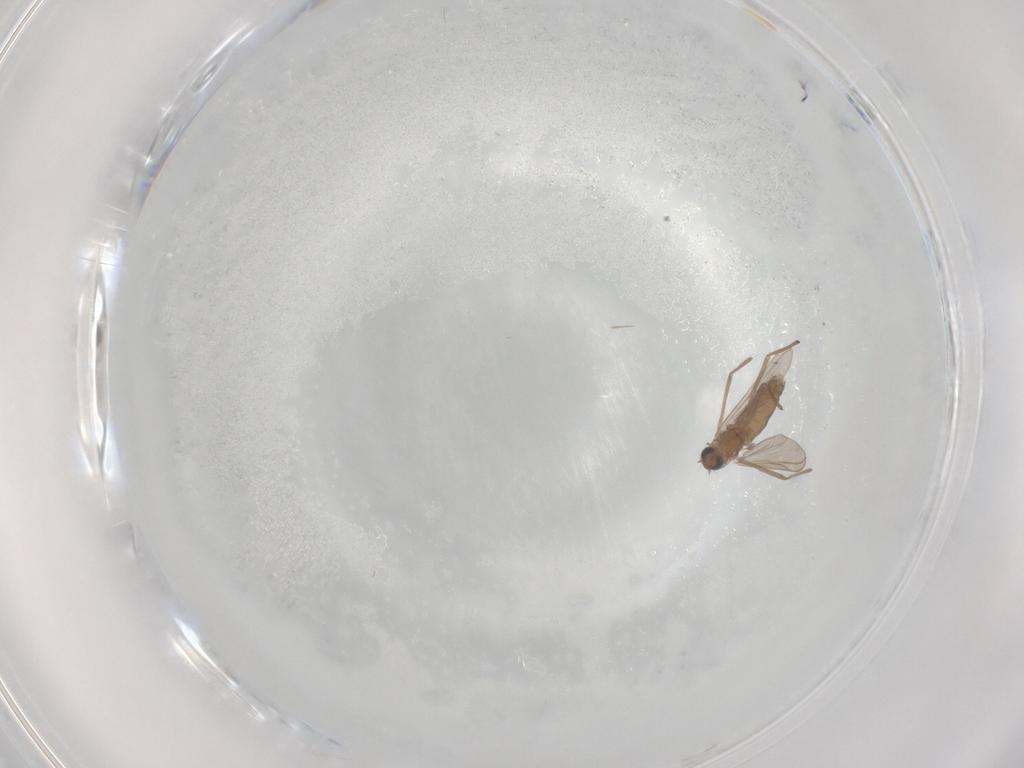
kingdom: Animalia
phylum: Arthropoda
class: Insecta
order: Diptera
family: Chironomidae
